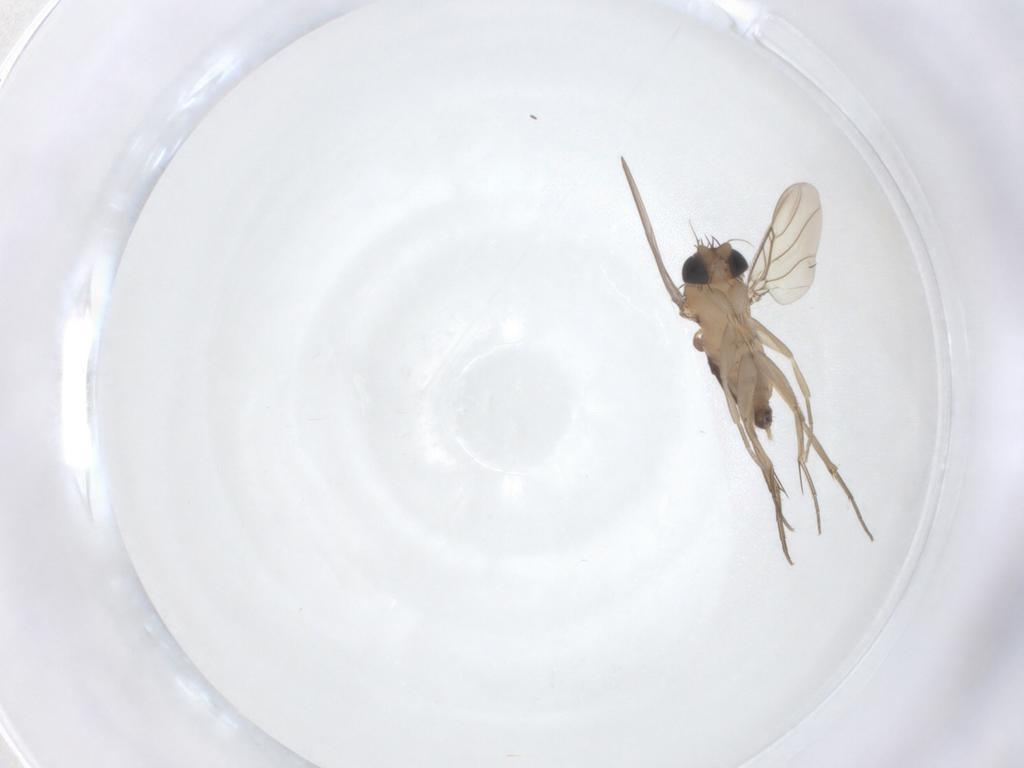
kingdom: Animalia
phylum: Arthropoda
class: Insecta
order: Diptera
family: Phoridae
